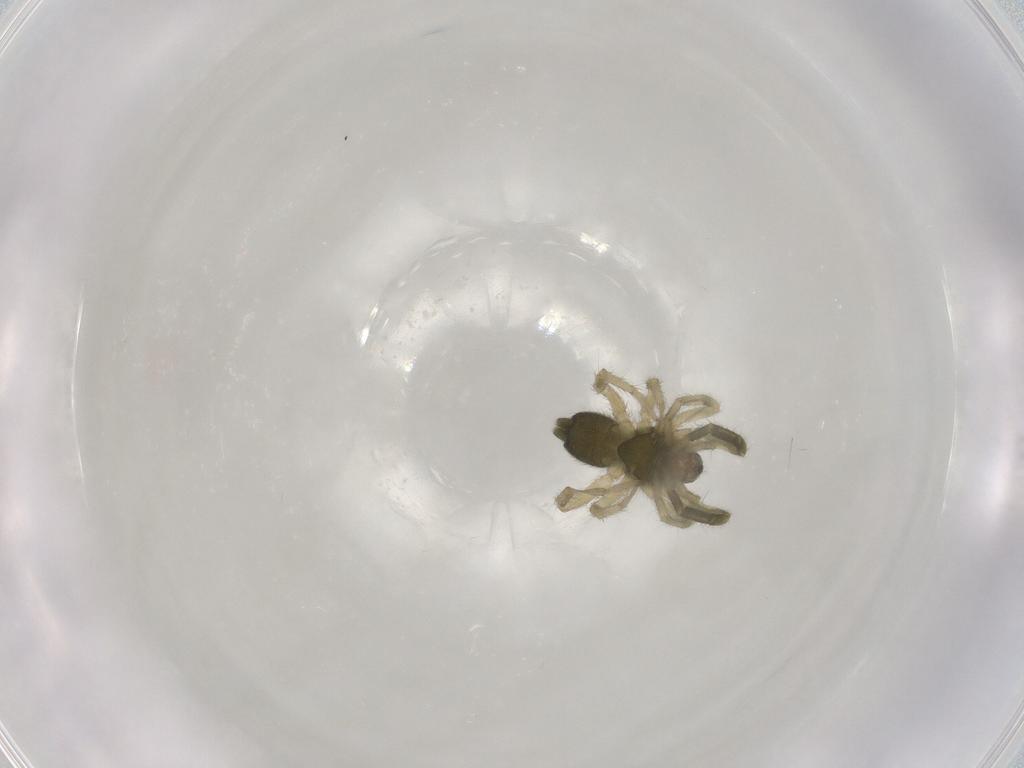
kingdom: Animalia
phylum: Arthropoda
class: Arachnida
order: Araneae
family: Gnaphosidae
